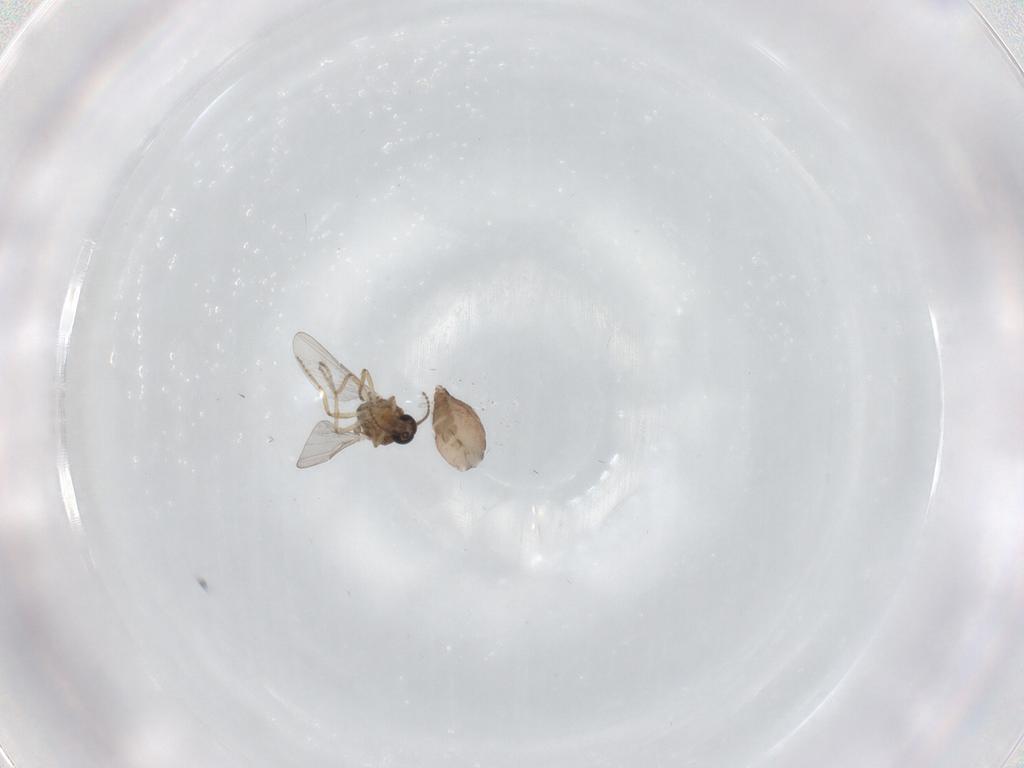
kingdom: Animalia
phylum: Arthropoda
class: Insecta
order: Diptera
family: Ceratopogonidae
